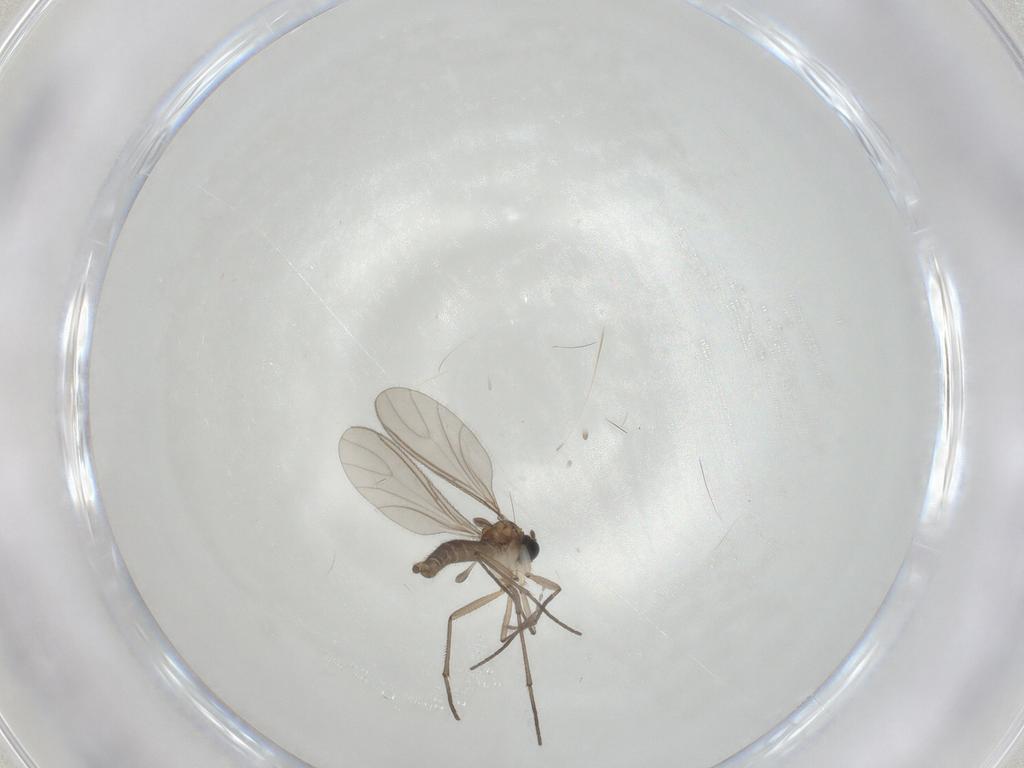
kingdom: Animalia
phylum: Arthropoda
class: Insecta
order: Diptera
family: Sciaridae
